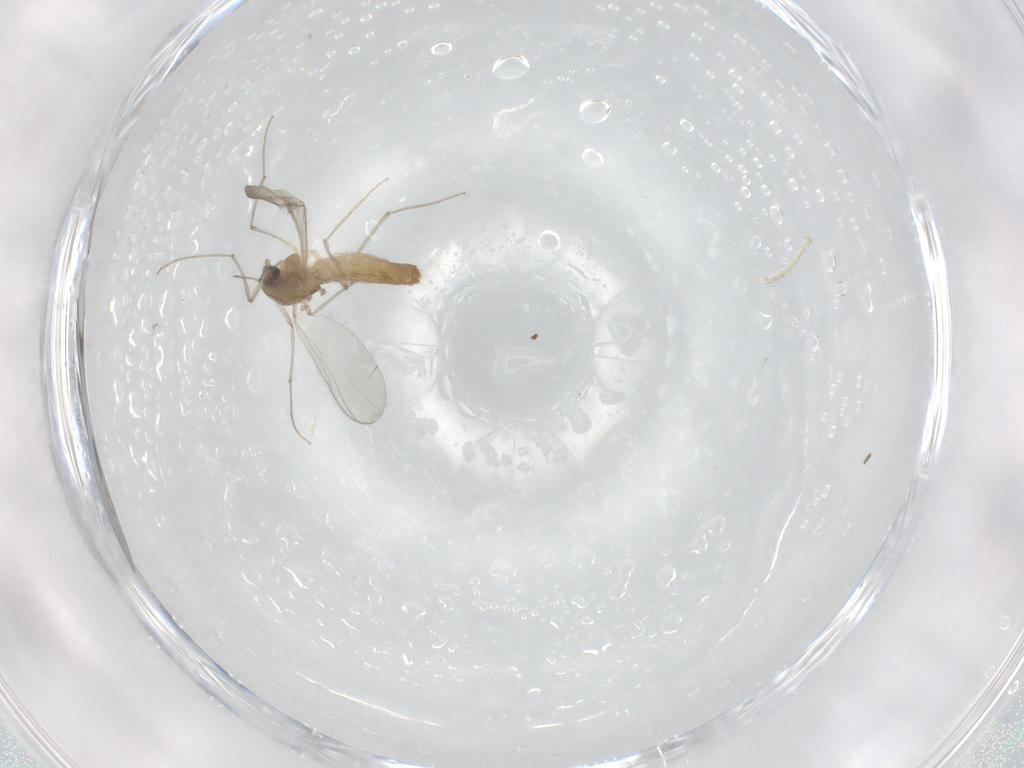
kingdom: Animalia
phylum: Arthropoda
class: Insecta
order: Diptera
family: Chironomidae
